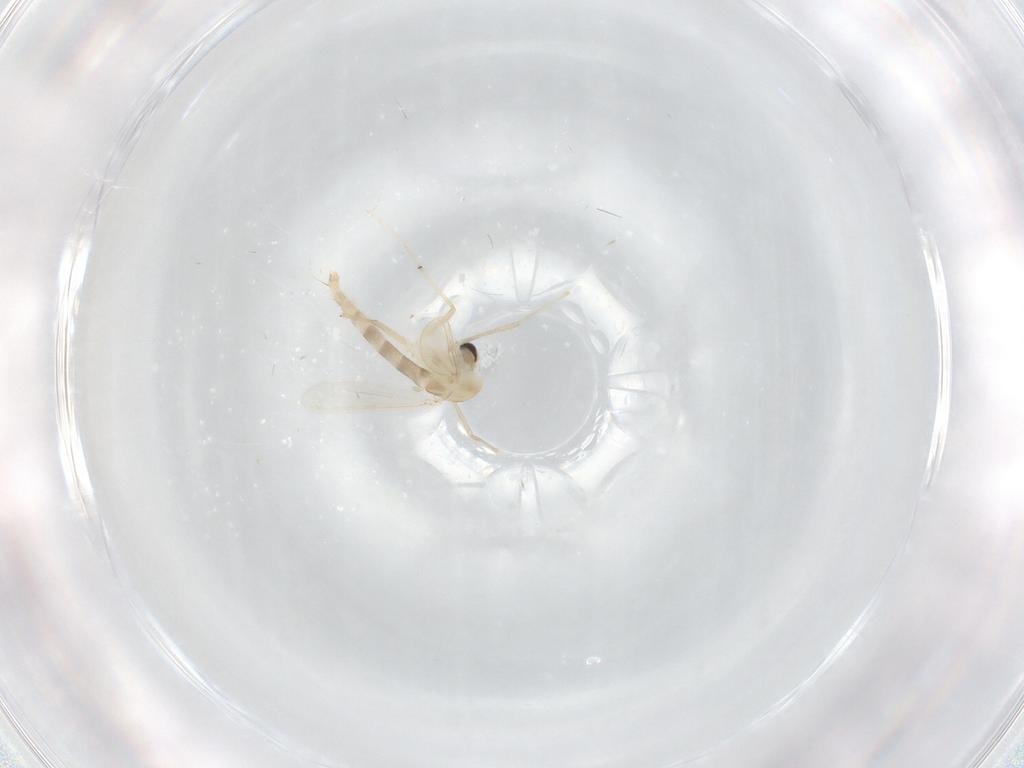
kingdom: Animalia
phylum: Arthropoda
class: Insecta
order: Diptera
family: Chironomidae
